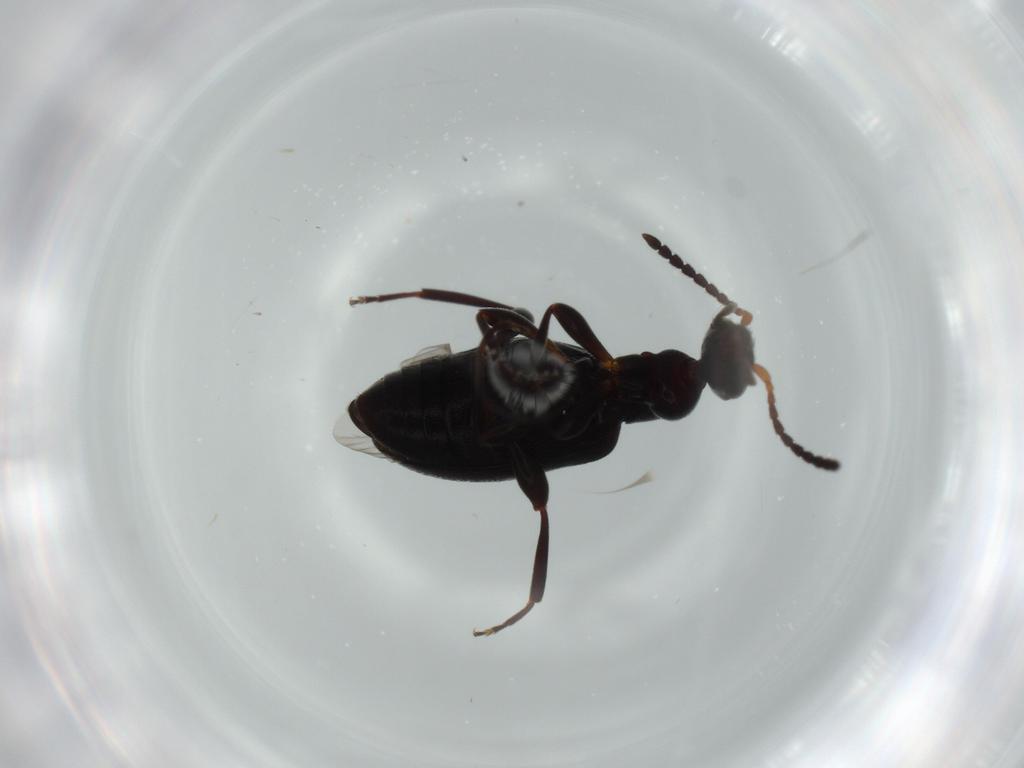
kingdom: Animalia
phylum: Arthropoda
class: Insecta
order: Coleoptera
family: Anthicidae
